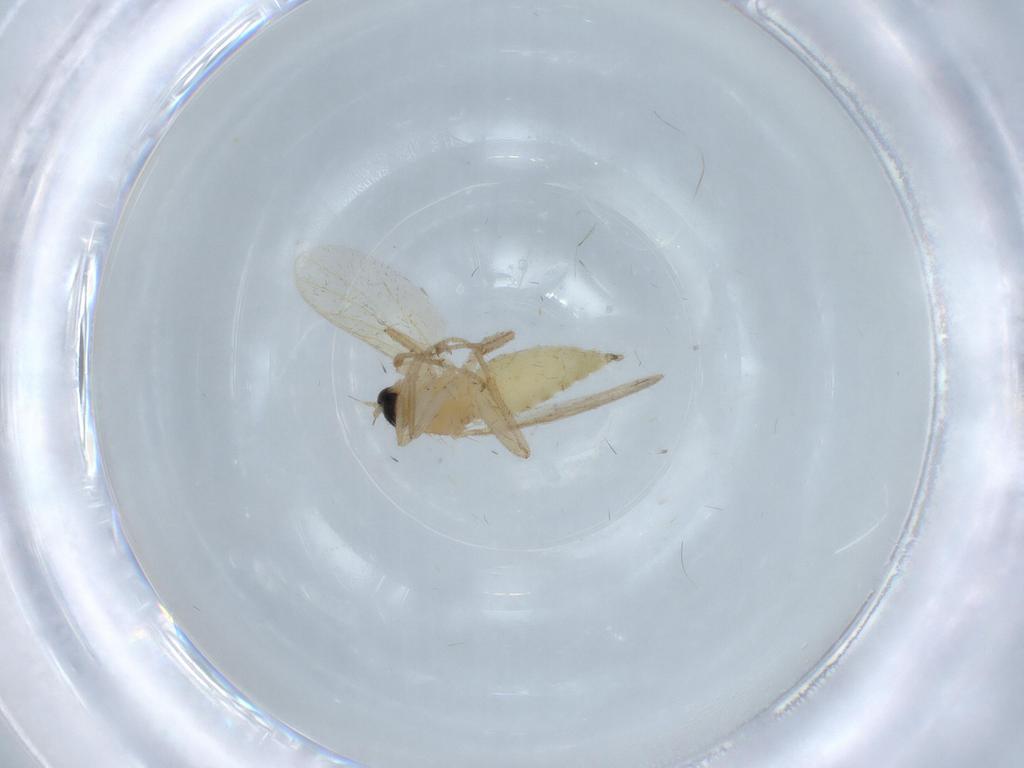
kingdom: Animalia
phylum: Arthropoda
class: Insecta
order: Diptera
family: Hybotidae
